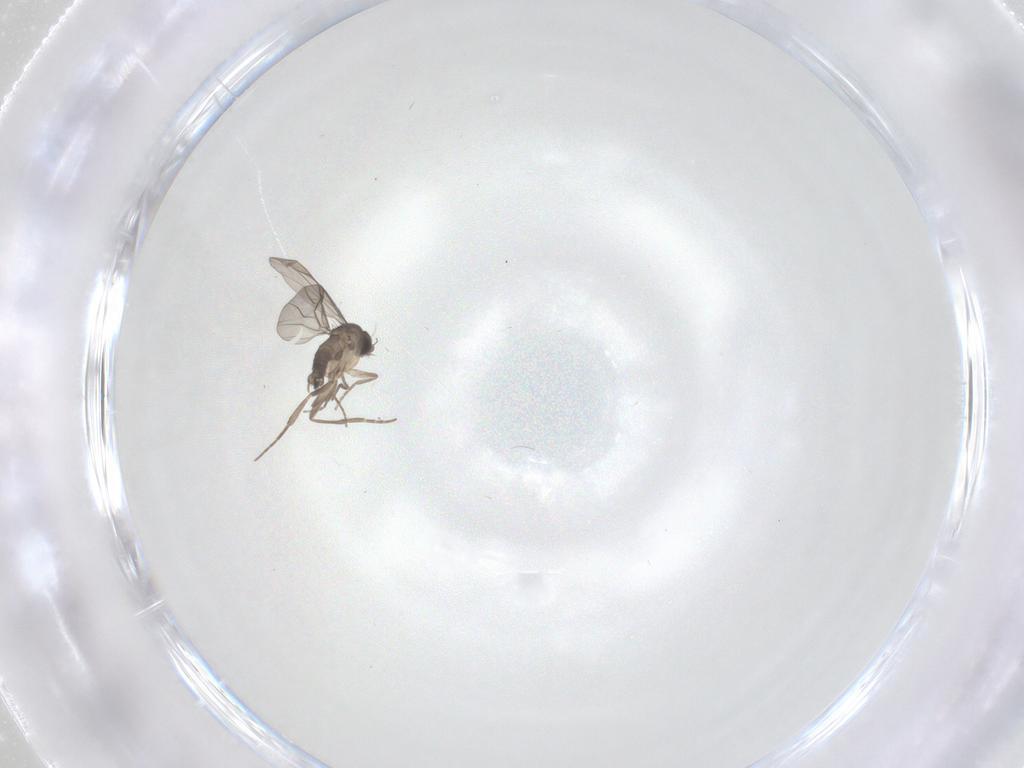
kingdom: Animalia
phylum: Arthropoda
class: Insecta
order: Diptera
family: Phoridae
